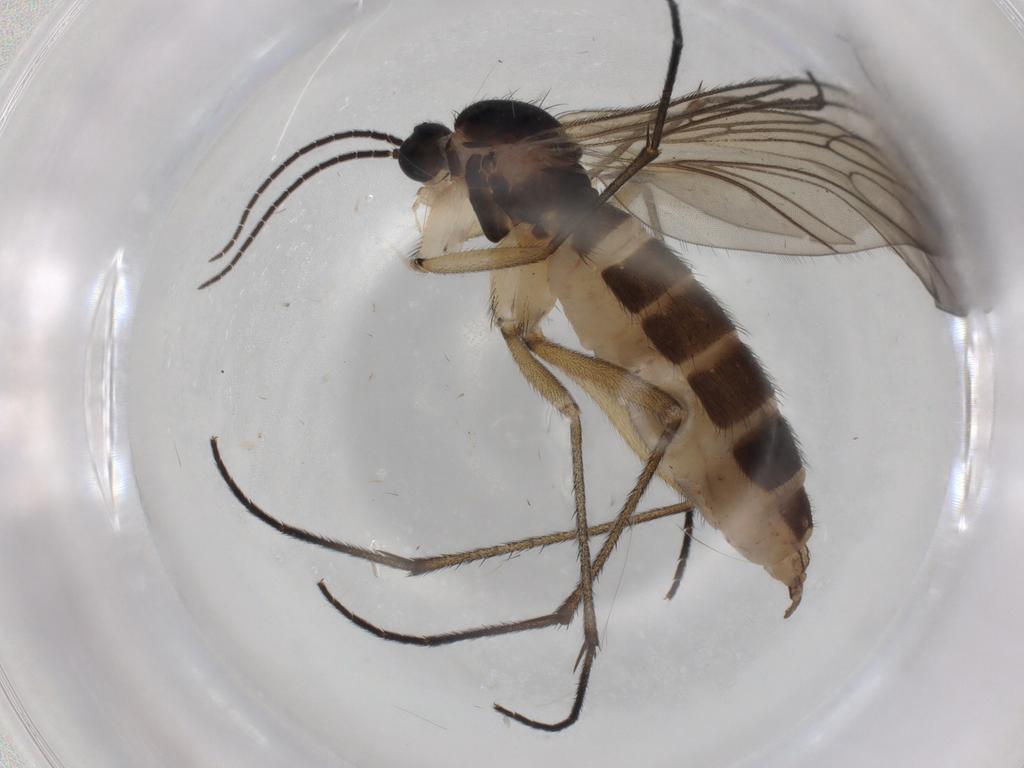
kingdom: Animalia
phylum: Arthropoda
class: Insecta
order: Diptera
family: Sciaridae
